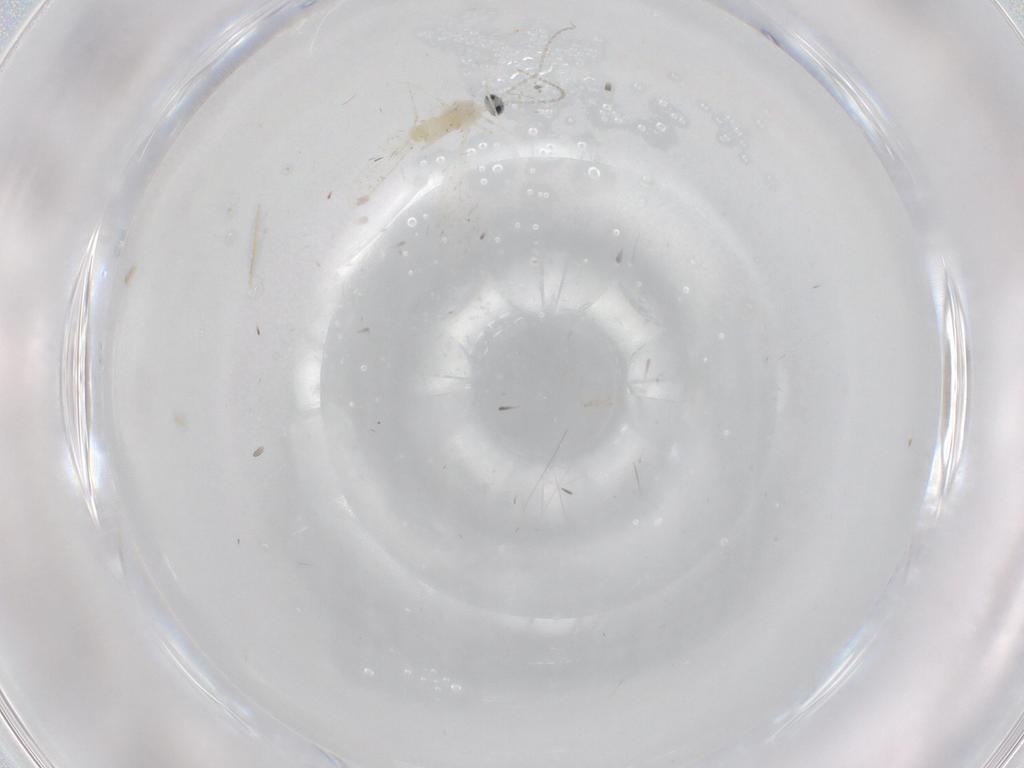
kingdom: Animalia
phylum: Arthropoda
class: Insecta
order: Diptera
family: Cecidomyiidae
